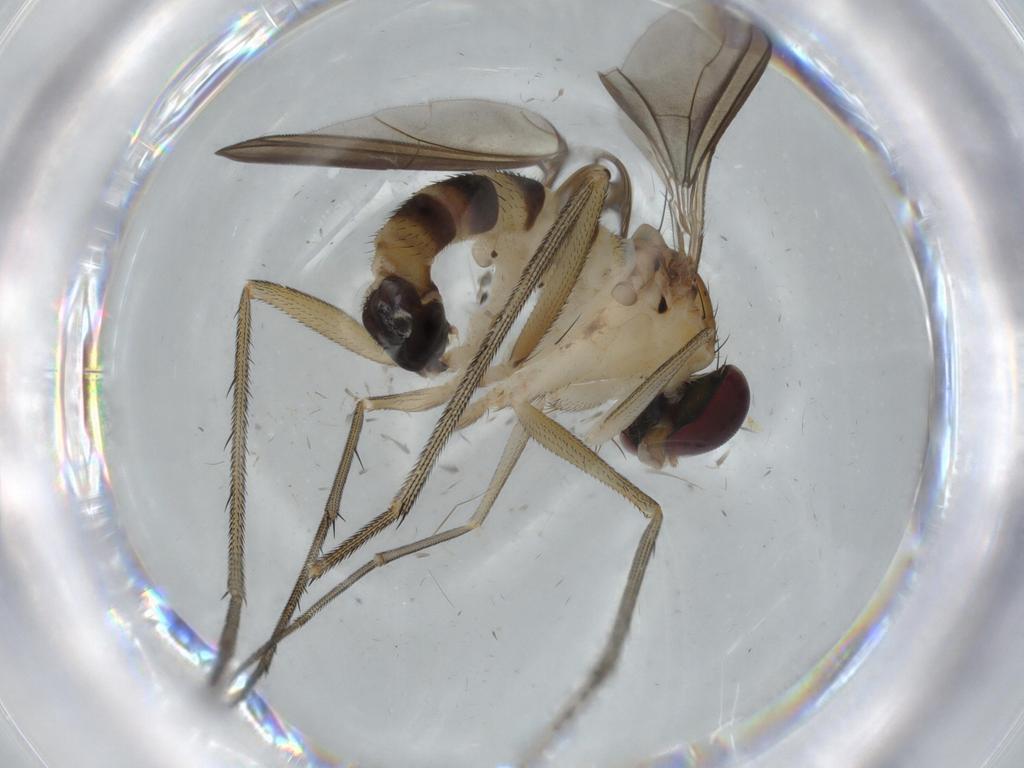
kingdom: Animalia
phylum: Arthropoda
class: Insecta
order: Diptera
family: Dolichopodidae
